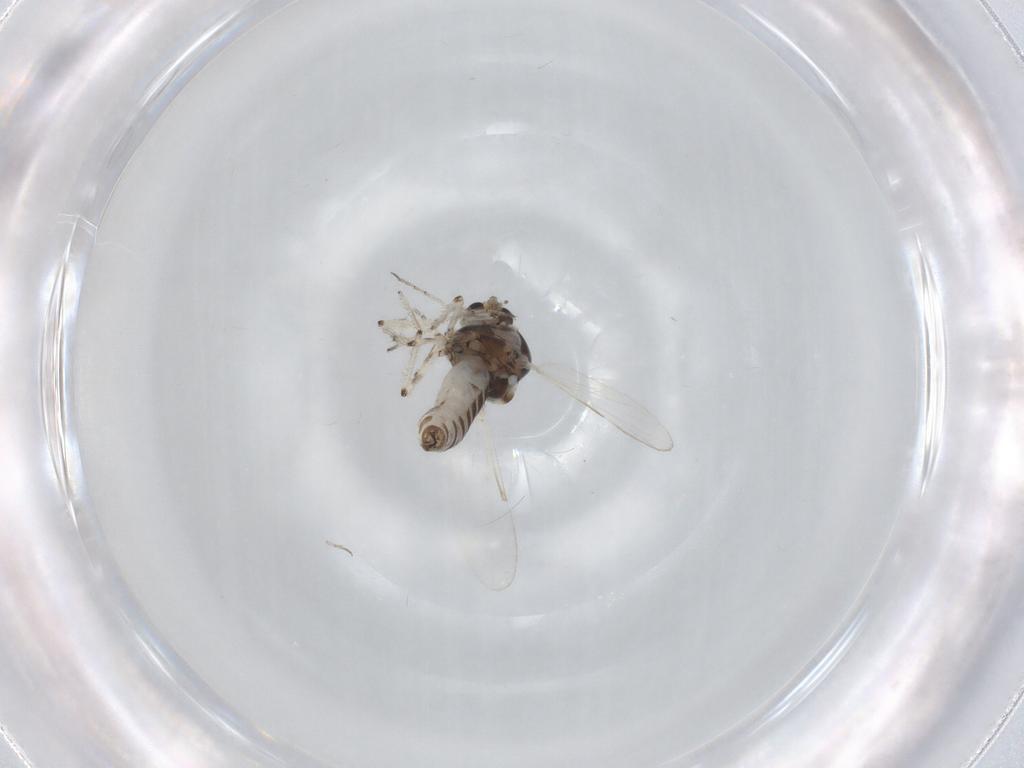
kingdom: Animalia
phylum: Arthropoda
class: Insecta
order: Diptera
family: Ceratopogonidae
